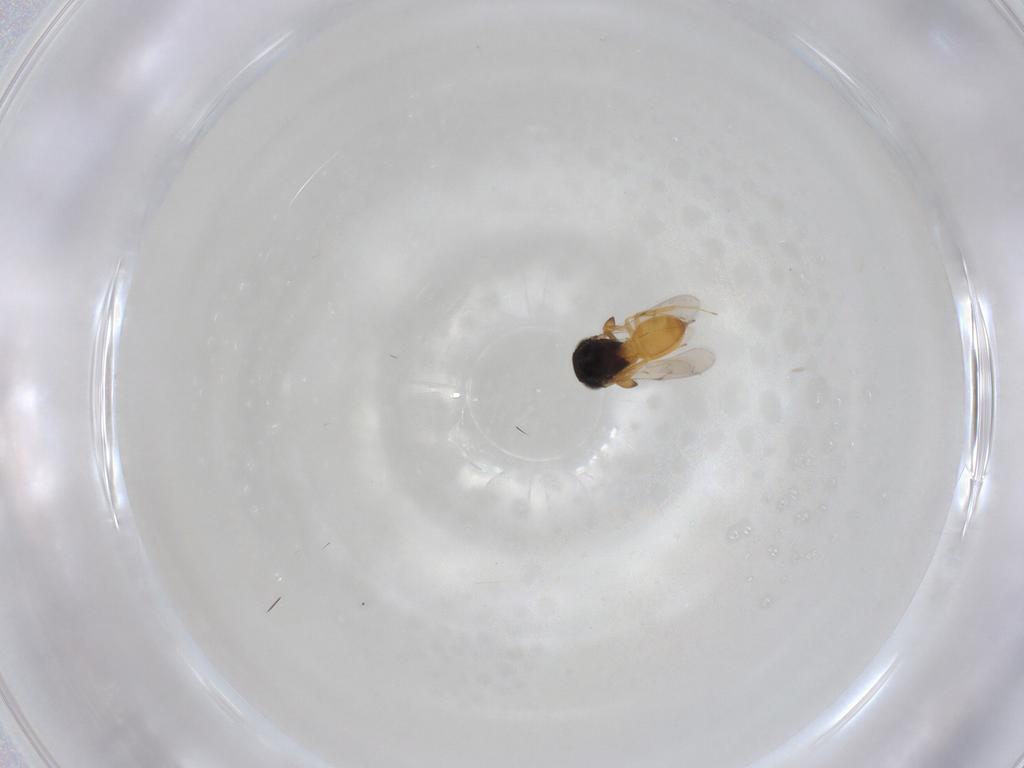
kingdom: Animalia
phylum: Arthropoda
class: Insecta
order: Hymenoptera
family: Scelionidae
